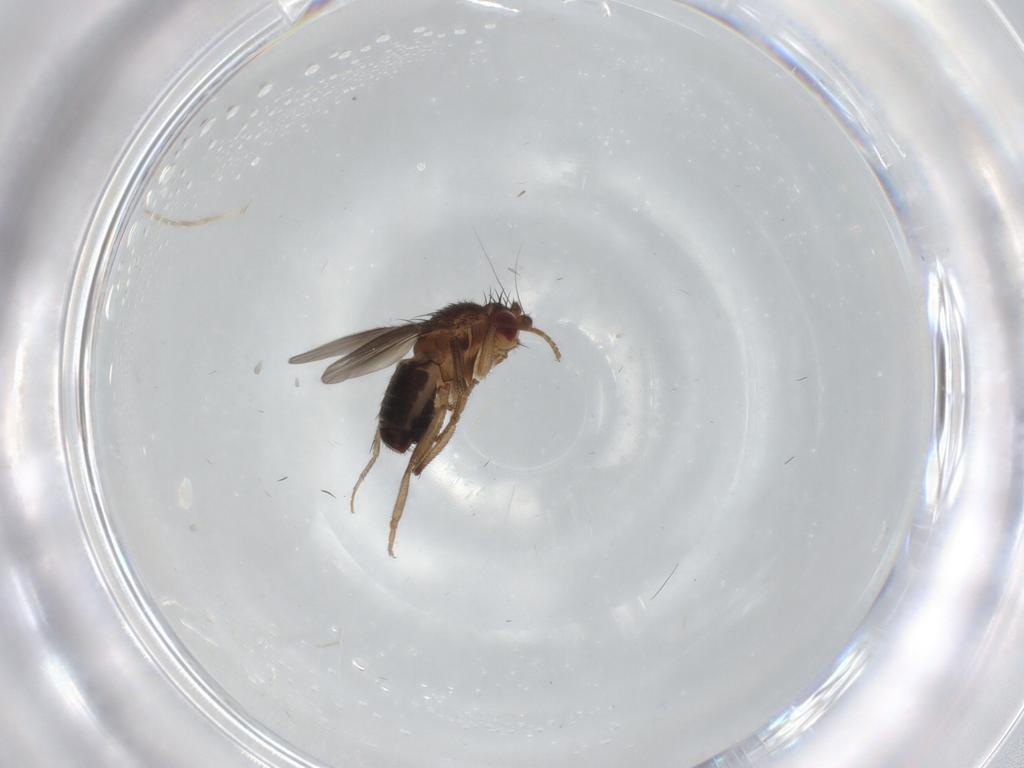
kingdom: Animalia
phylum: Arthropoda
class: Insecta
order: Diptera
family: Sphaeroceridae
